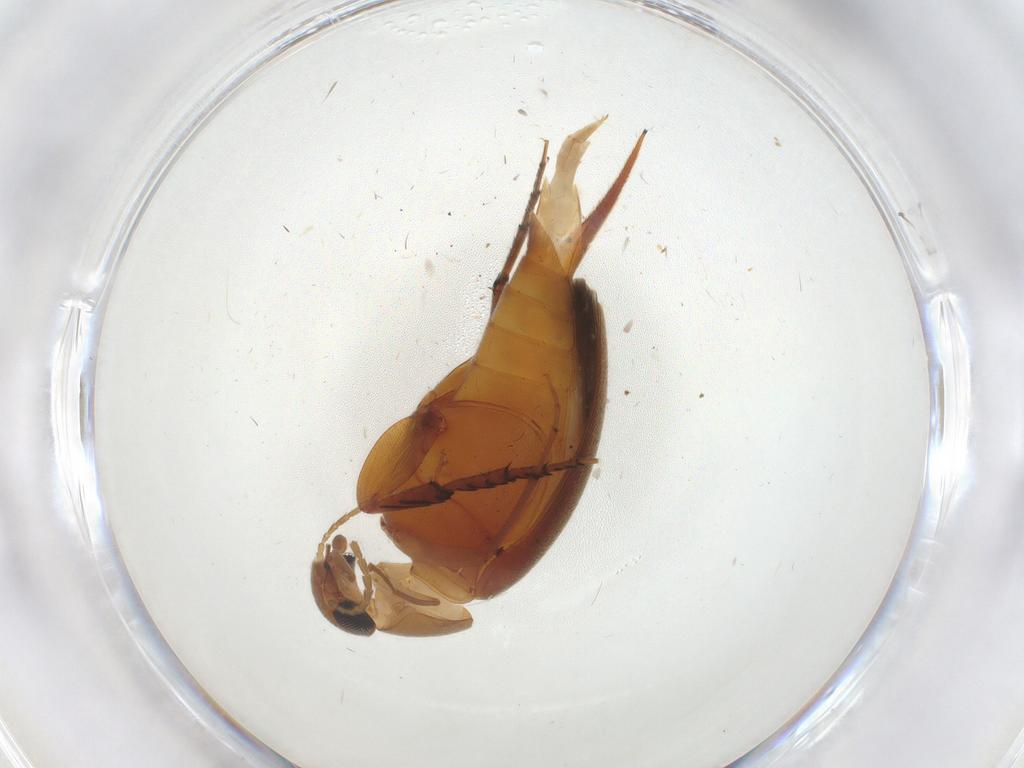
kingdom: Animalia
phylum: Arthropoda
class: Insecta
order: Coleoptera
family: Mordellidae
